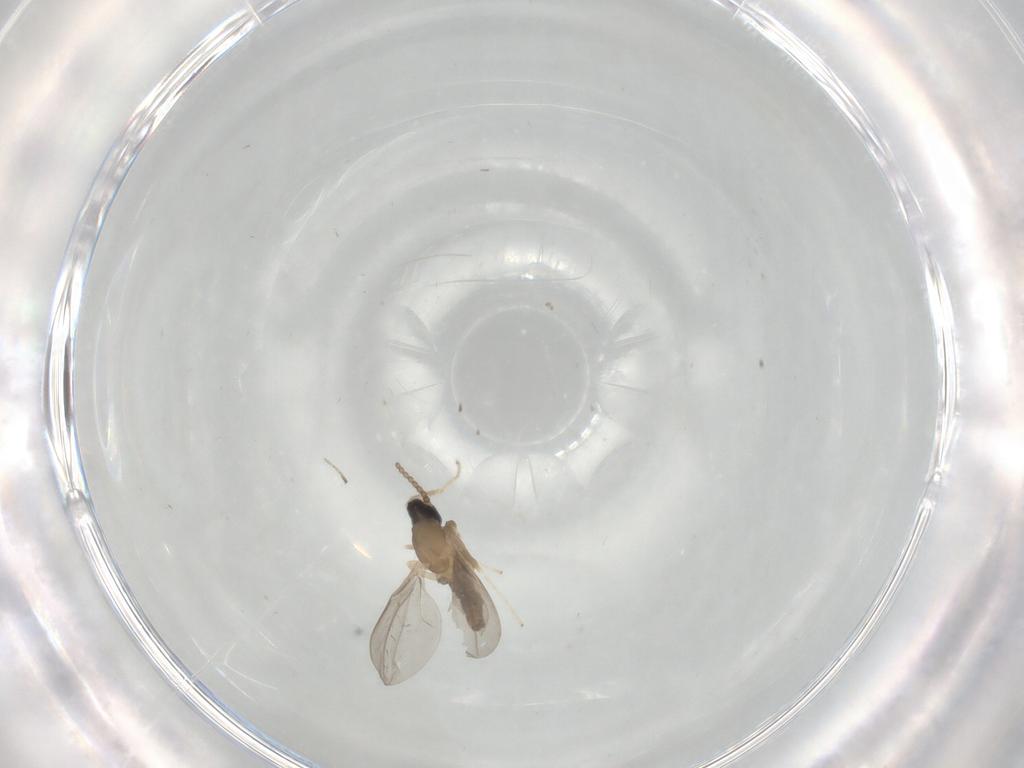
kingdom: Animalia
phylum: Arthropoda
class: Insecta
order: Diptera
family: Cecidomyiidae
